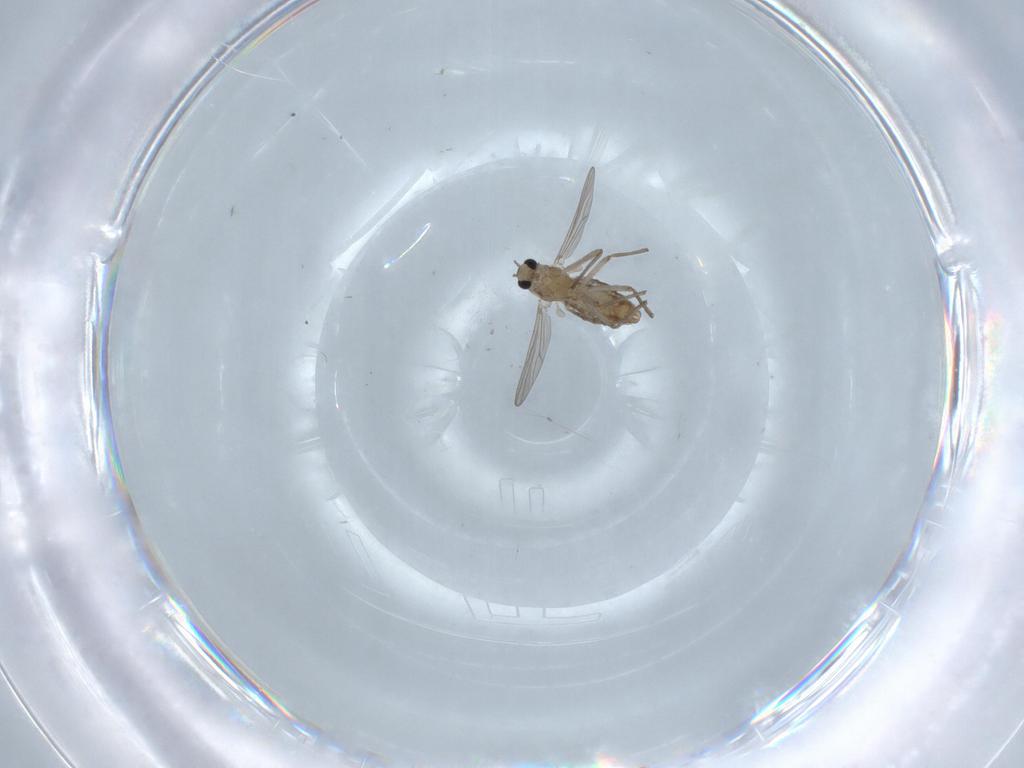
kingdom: Animalia
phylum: Arthropoda
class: Insecta
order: Diptera
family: Chironomidae
